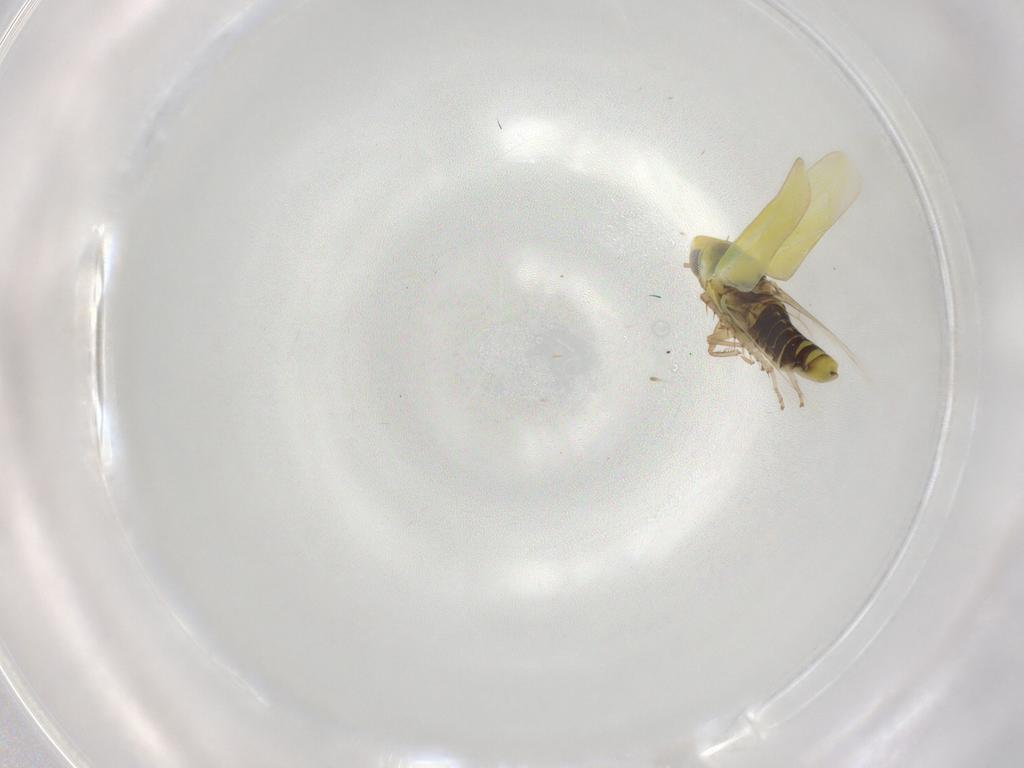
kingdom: Animalia
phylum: Arthropoda
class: Insecta
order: Hemiptera
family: Cicadellidae
